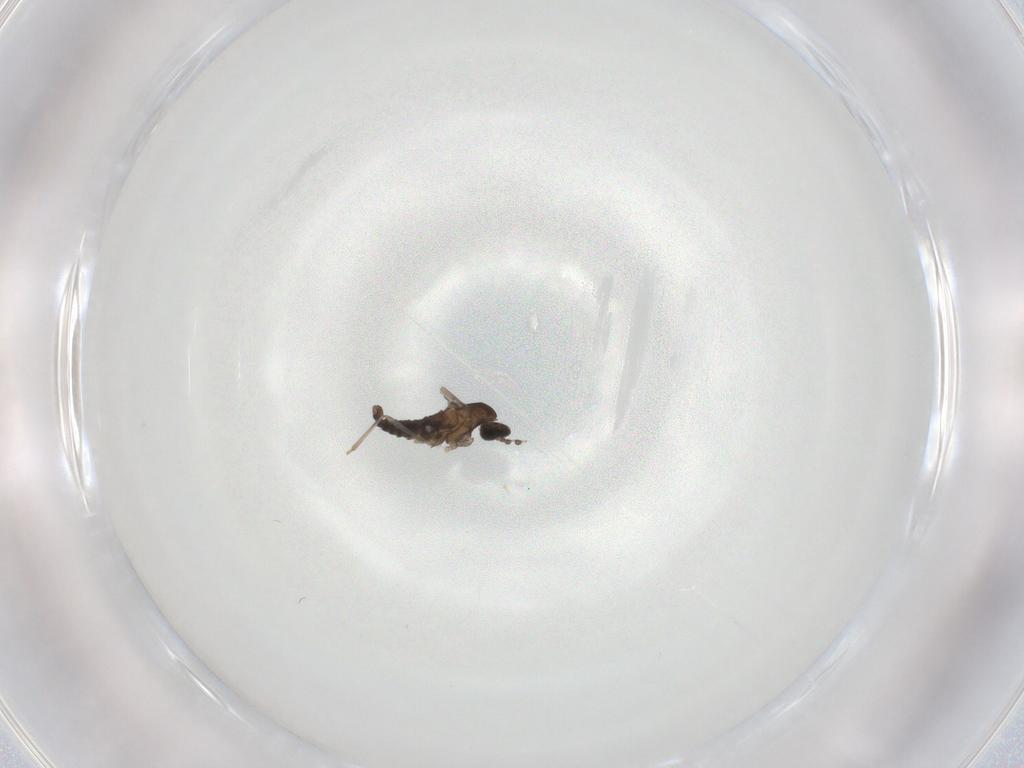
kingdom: Animalia
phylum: Arthropoda
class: Insecta
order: Diptera
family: Cecidomyiidae
